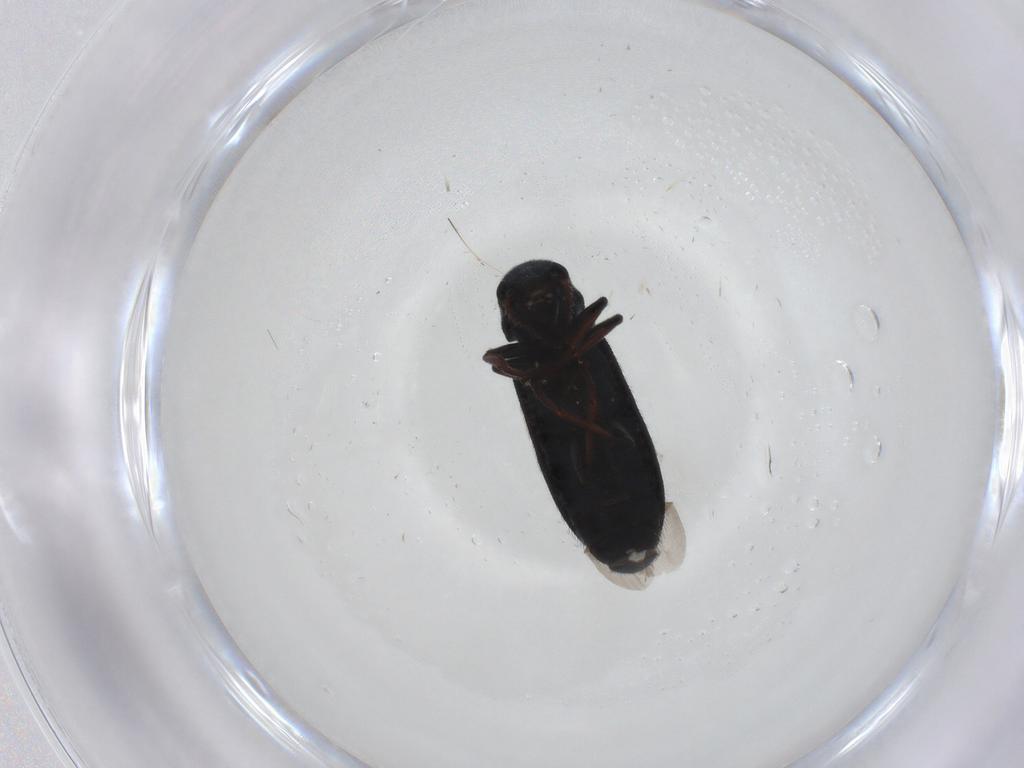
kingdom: Animalia
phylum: Arthropoda
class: Insecta
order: Coleoptera
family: Melyridae
